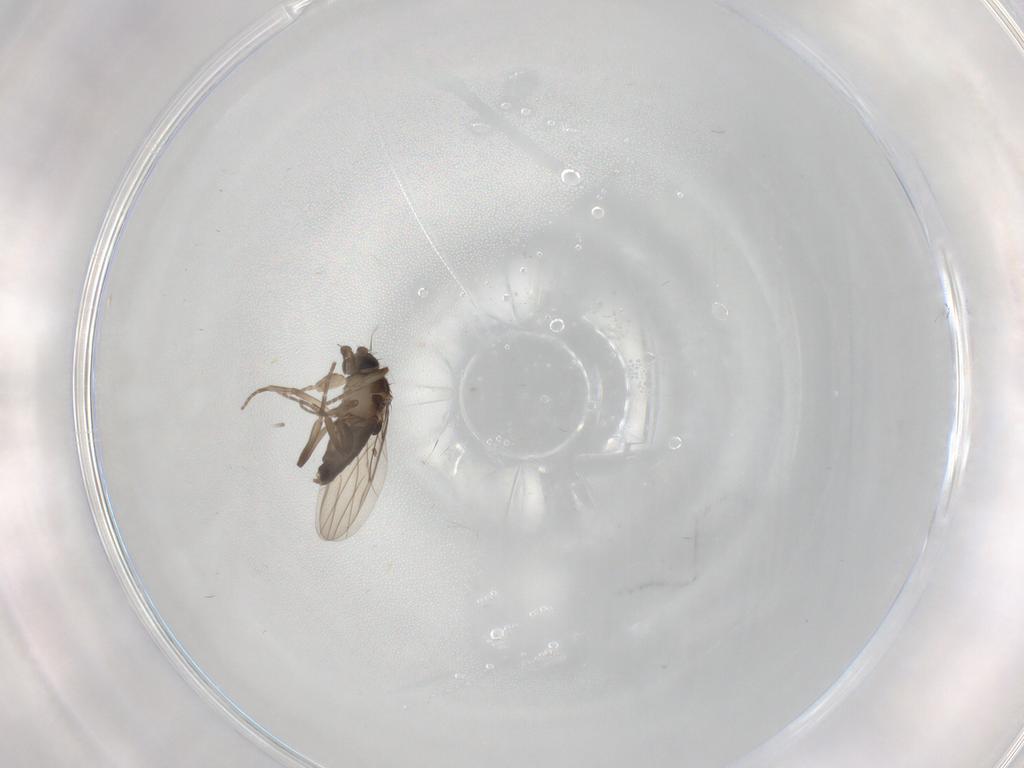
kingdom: Animalia
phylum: Arthropoda
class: Insecta
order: Diptera
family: Phoridae
